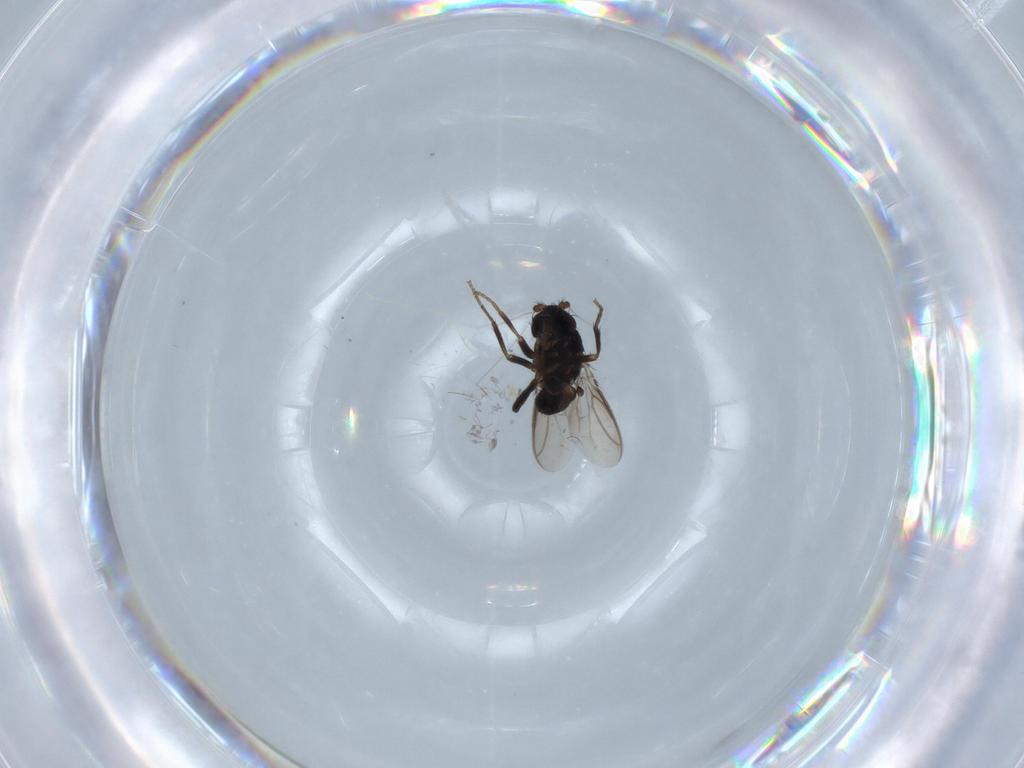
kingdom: Animalia
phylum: Arthropoda
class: Insecta
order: Diptera
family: Sphaeroceridae
